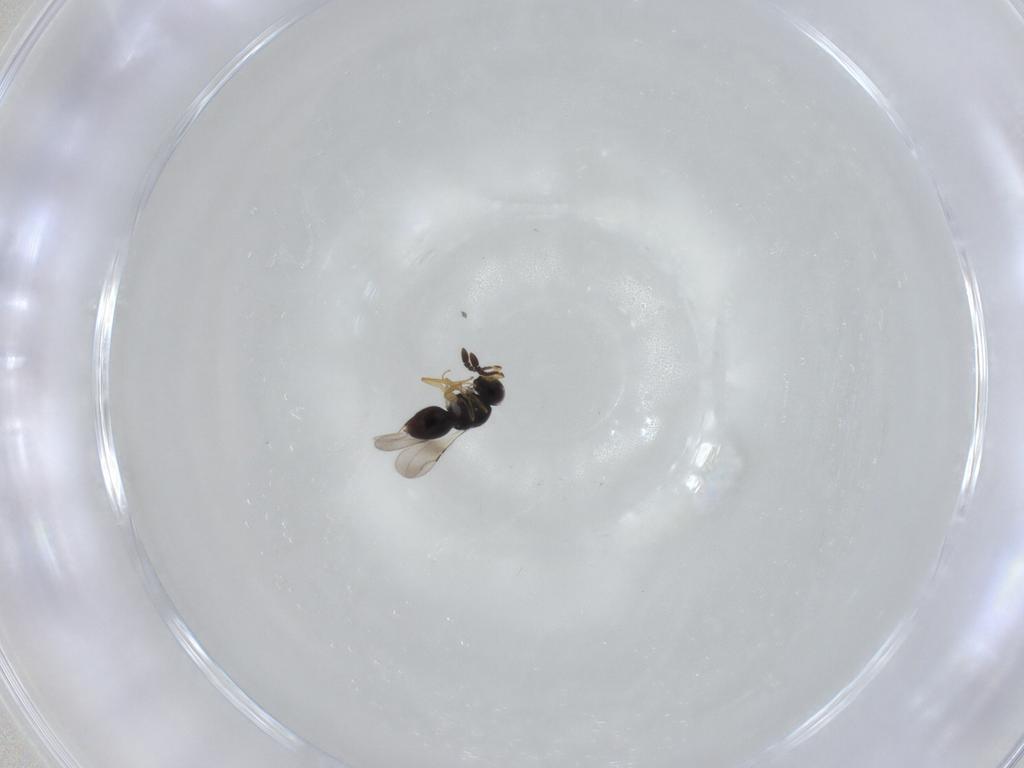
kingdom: Animalia
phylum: Arthropoda
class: Insecta
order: Hymenoptera
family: Ceraphronidae
